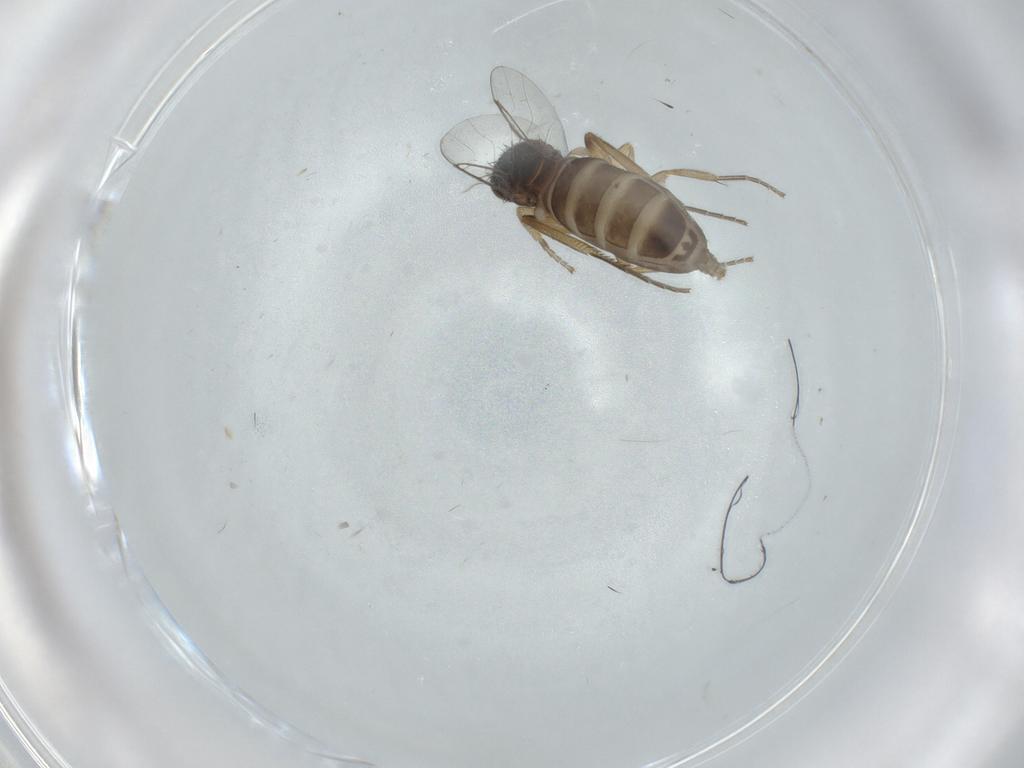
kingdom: Animalia
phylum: Arthropoda
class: Insecta
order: Diptera
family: Phoridae
